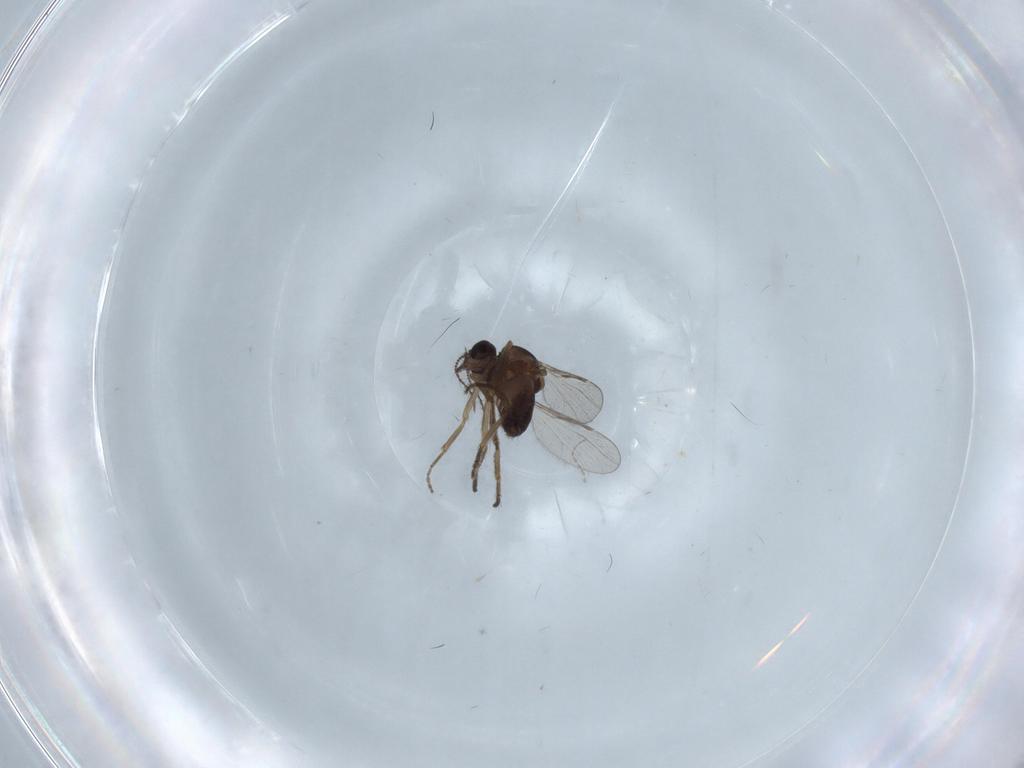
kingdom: Animalia
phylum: Arthropoda
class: Insecta
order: Diptera
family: Psychodidae
